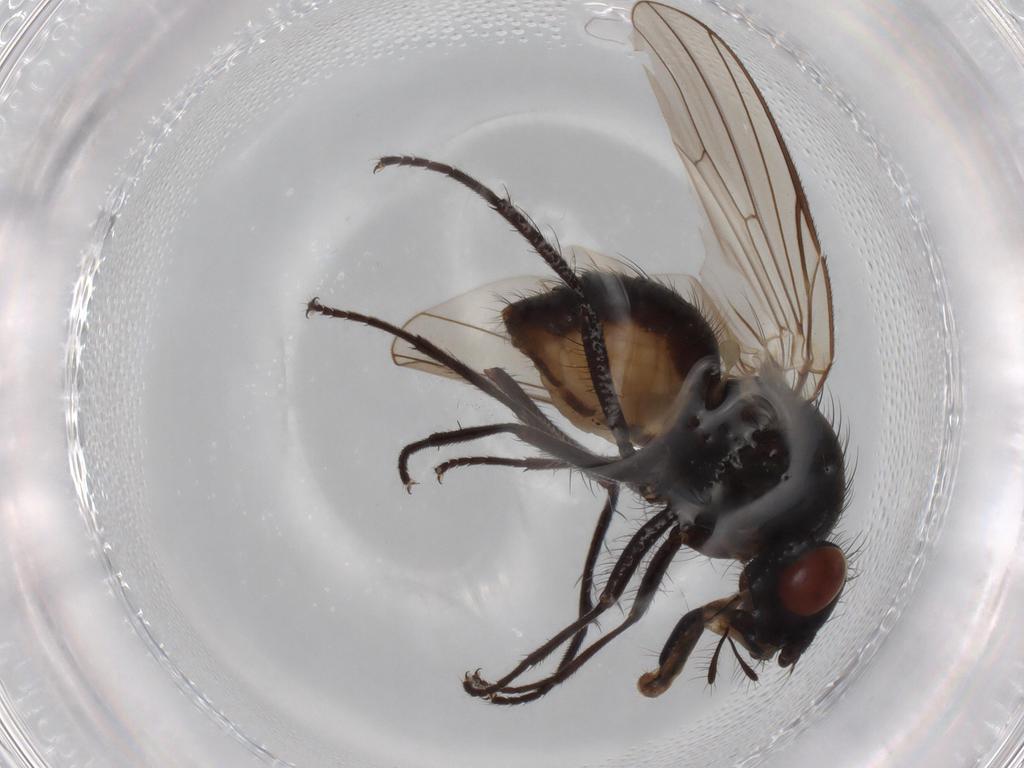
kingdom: Animalia
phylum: Arthropoda
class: Insecta
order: Diptera
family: Anthomyiidae
